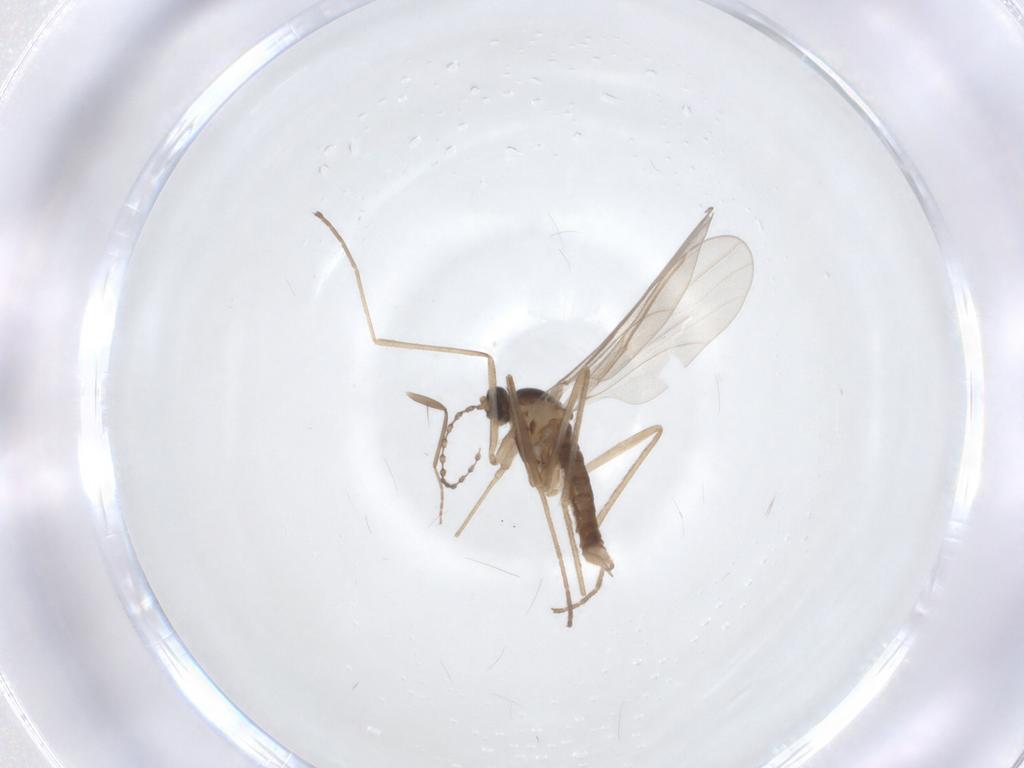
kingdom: Animalia
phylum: Arthropoda
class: Insecta
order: Diptera
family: Cecidomyiidae
